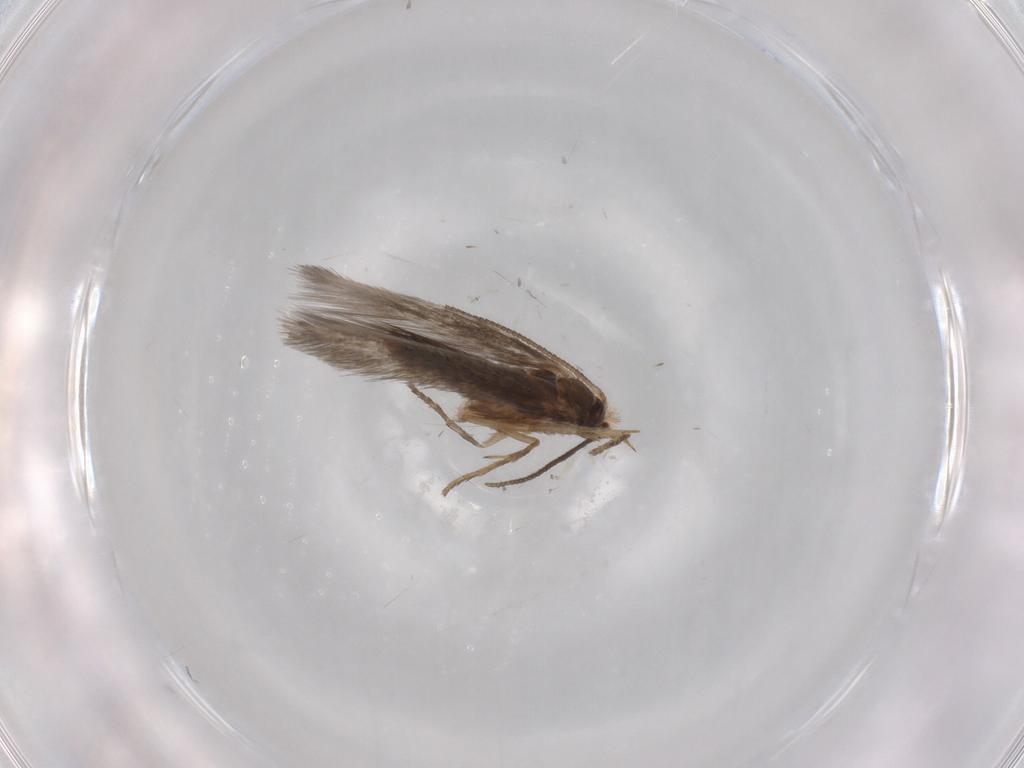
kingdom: Animalia
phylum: Arthropoda
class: Insecta
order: Lepidoptera
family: Nepticulidae
